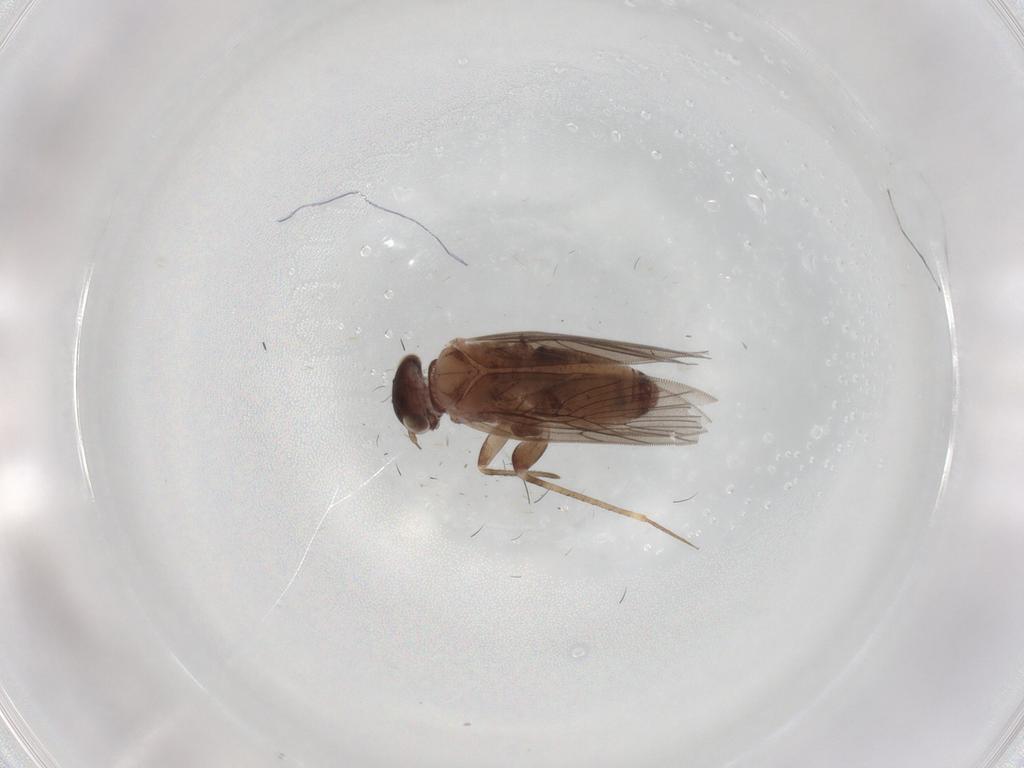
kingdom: Animalia
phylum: Arthropoda
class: Insecta
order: Psocodea
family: Lepidopsocidae
